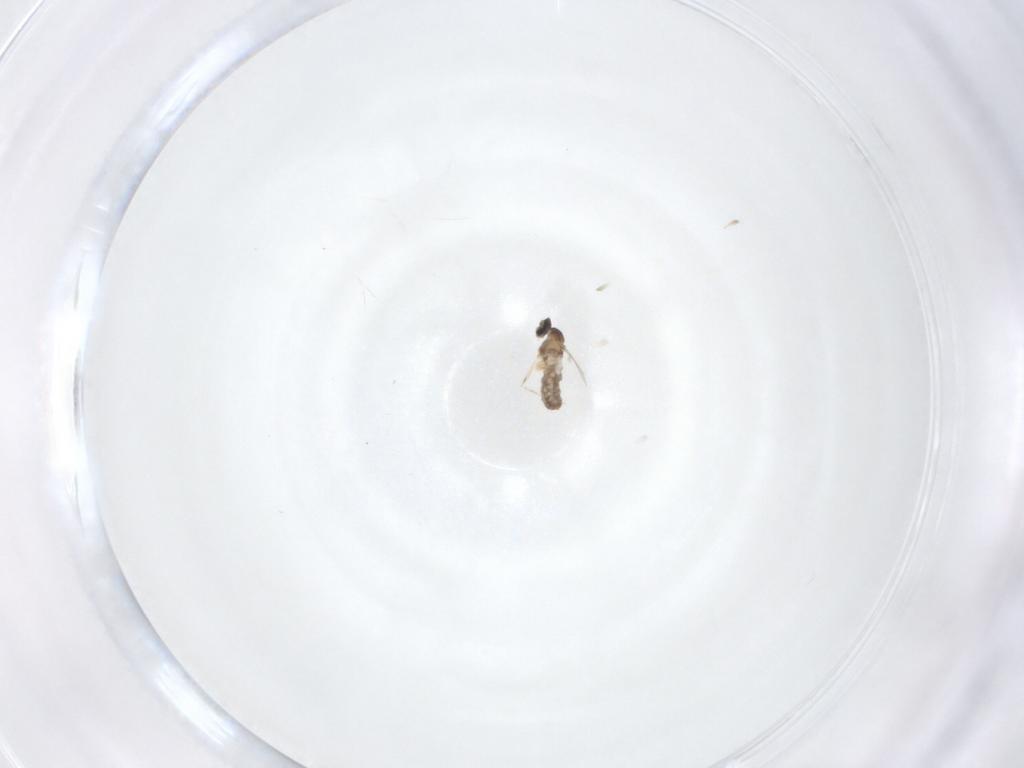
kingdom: Animalia
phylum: Arthropoda
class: Insecta
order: Diptera
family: Cecidomyiidae
